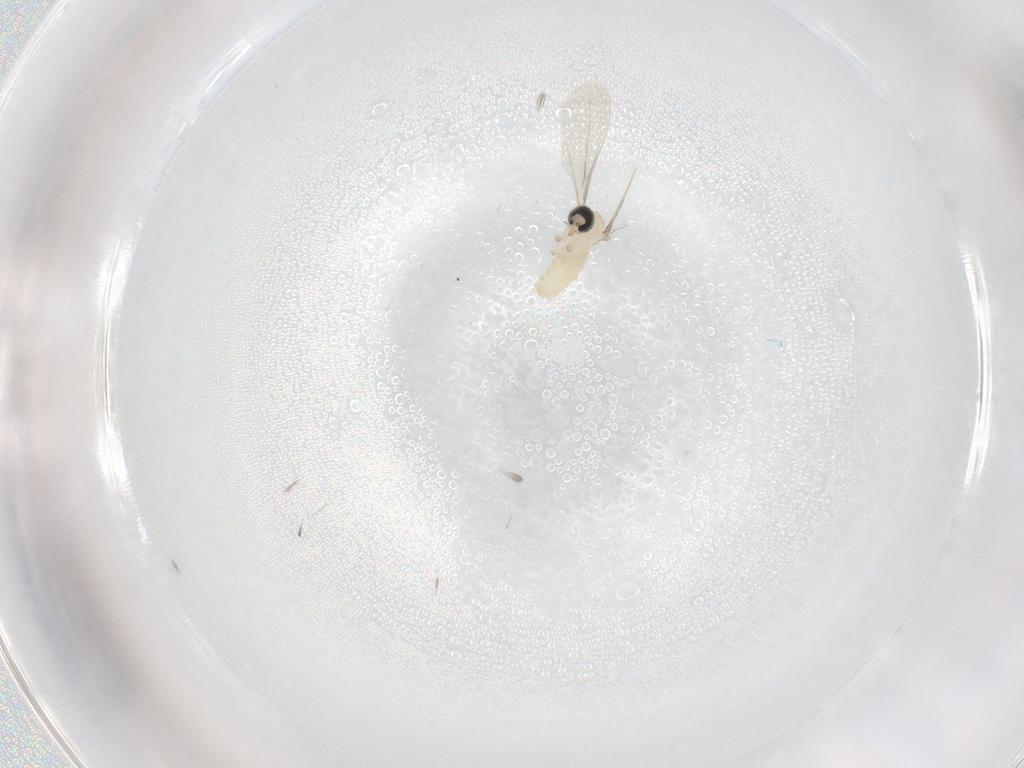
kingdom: Animalia
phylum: Arthropoda
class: Insecta
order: Diptera
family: Cecidomyiidae
